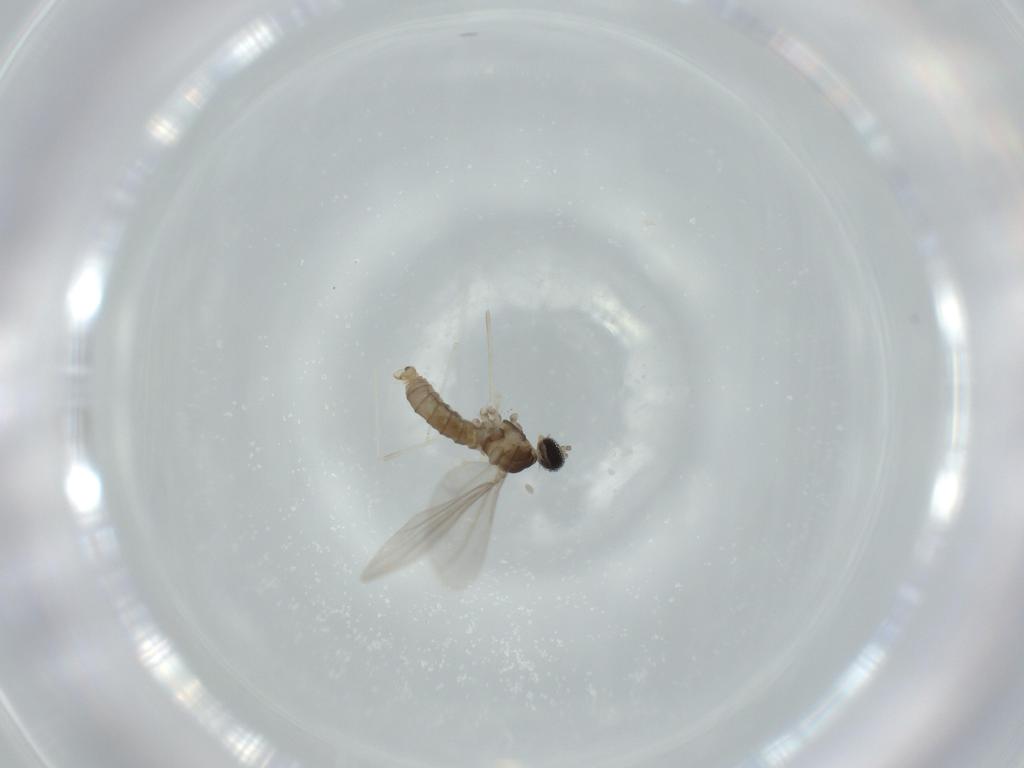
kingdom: Animalia
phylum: Arthropoda
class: Insecta
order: Diptera
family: Cecidomyiidae
